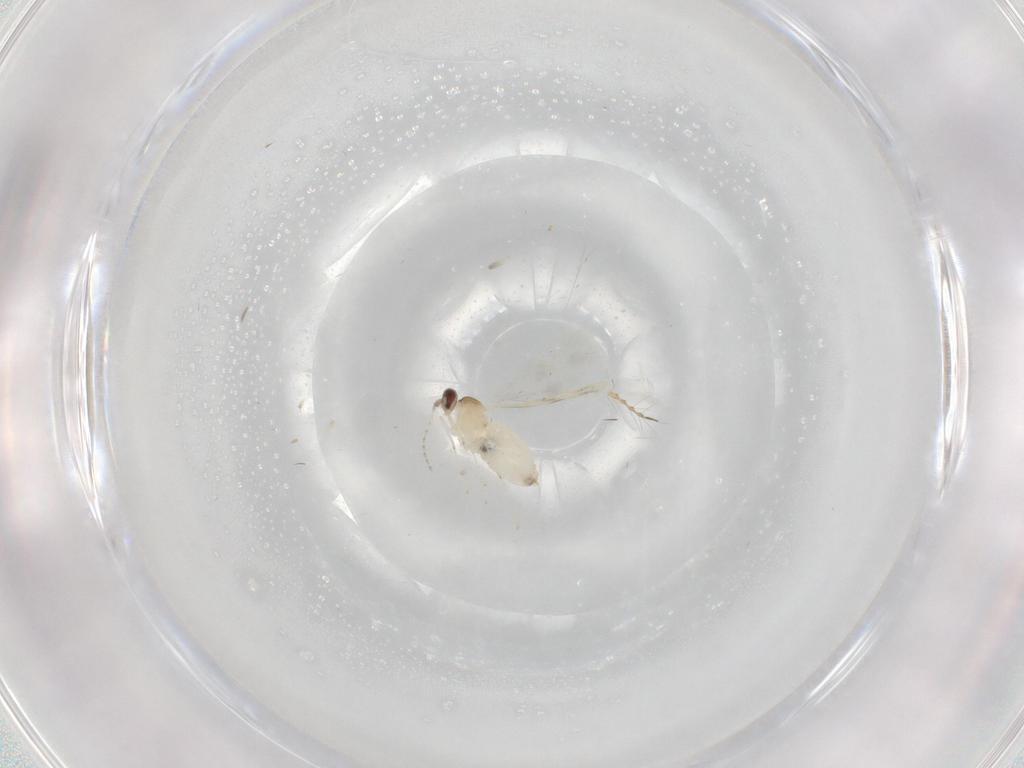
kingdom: Animalia
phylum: Arthropoda
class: Insecta
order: Diptera
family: Cecidomyiidae
